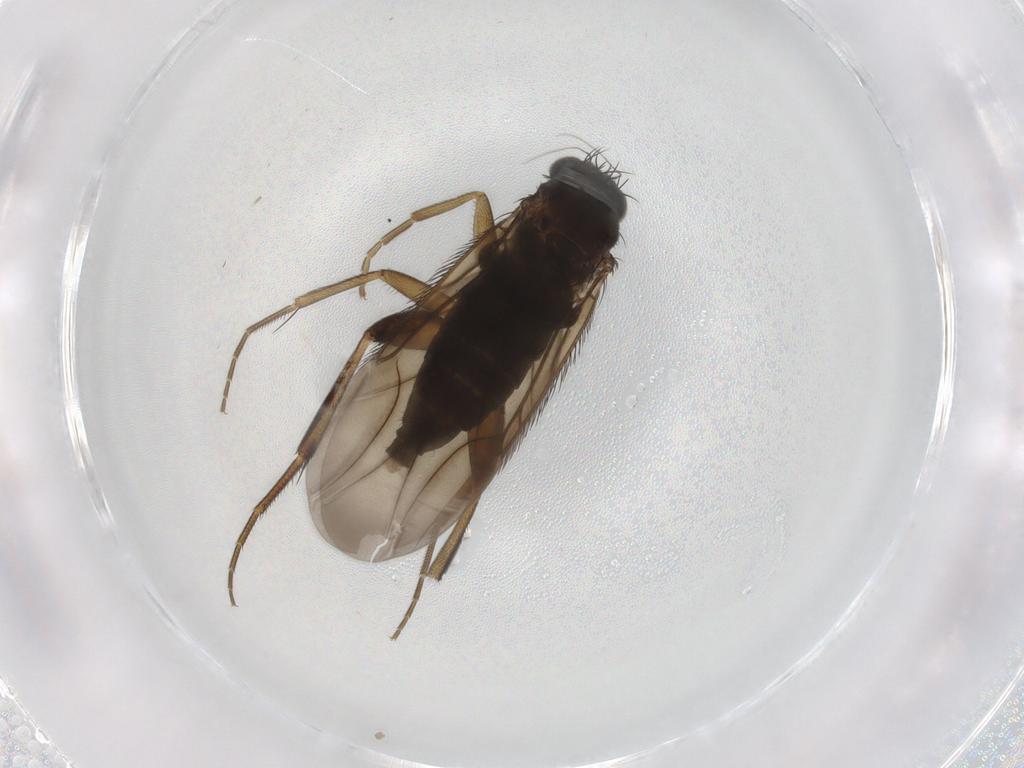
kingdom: Animalia
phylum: Arthropoda
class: Insecta
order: Diptera
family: Phoridae
